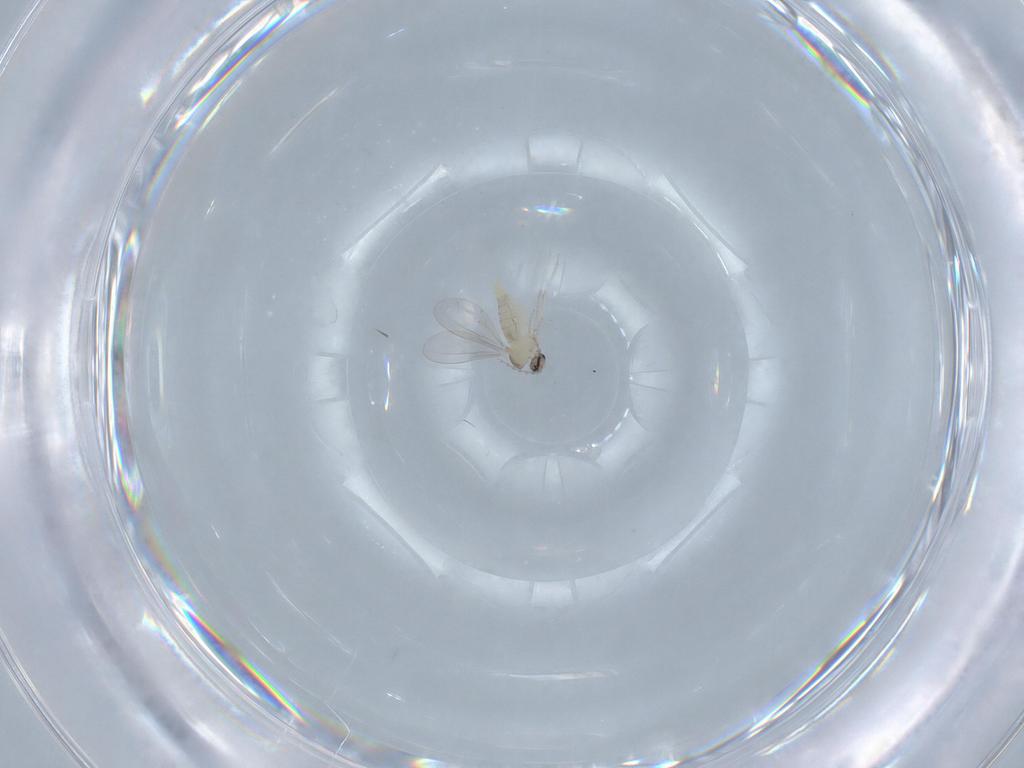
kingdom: Animalia
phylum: Arthropoda
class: Insecta
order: Diptera
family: Cecidomyiidae
